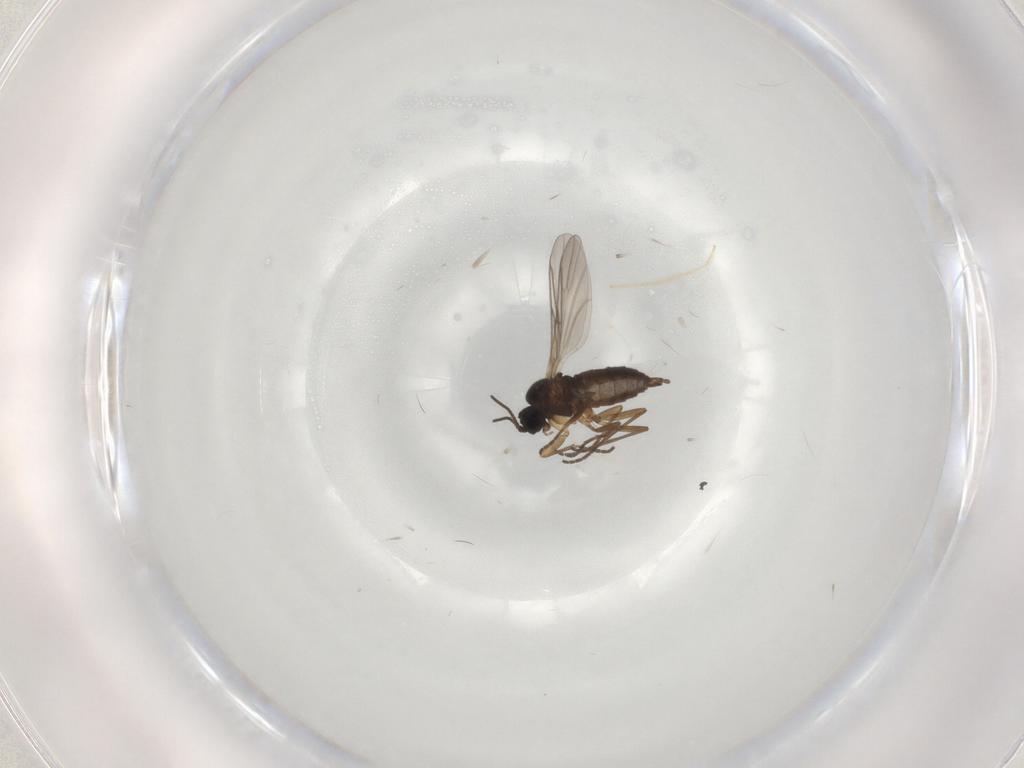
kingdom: Animalia
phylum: Arthropoda
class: Insecta
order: Diptera
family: Sciaridae
